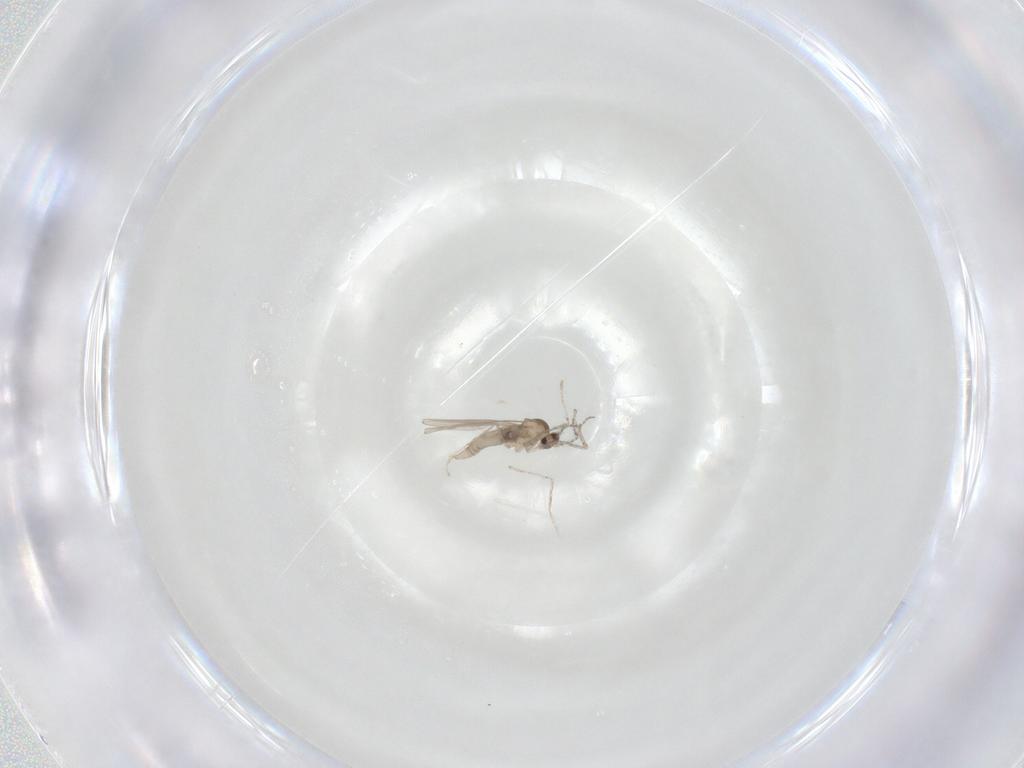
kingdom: Animalia
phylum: Arthropoda
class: Insecta
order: Diptera
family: Cecidomyiidae
